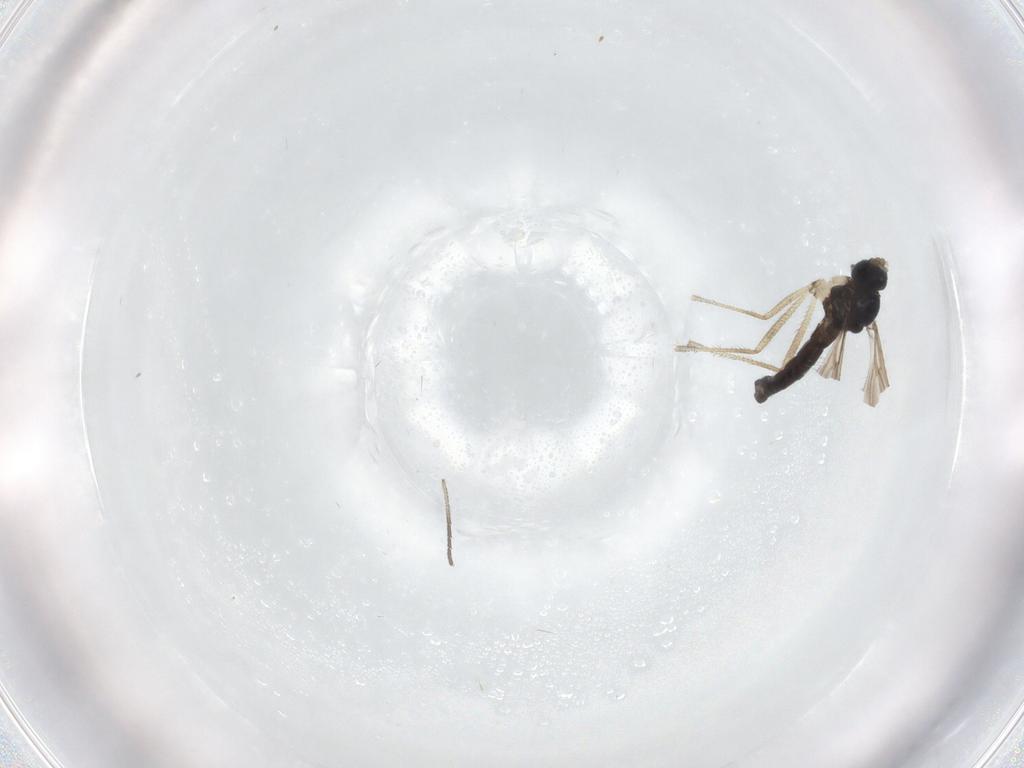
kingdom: Animalia
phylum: Arthropoda
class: Insecta
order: Diptera
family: Sciaridae
